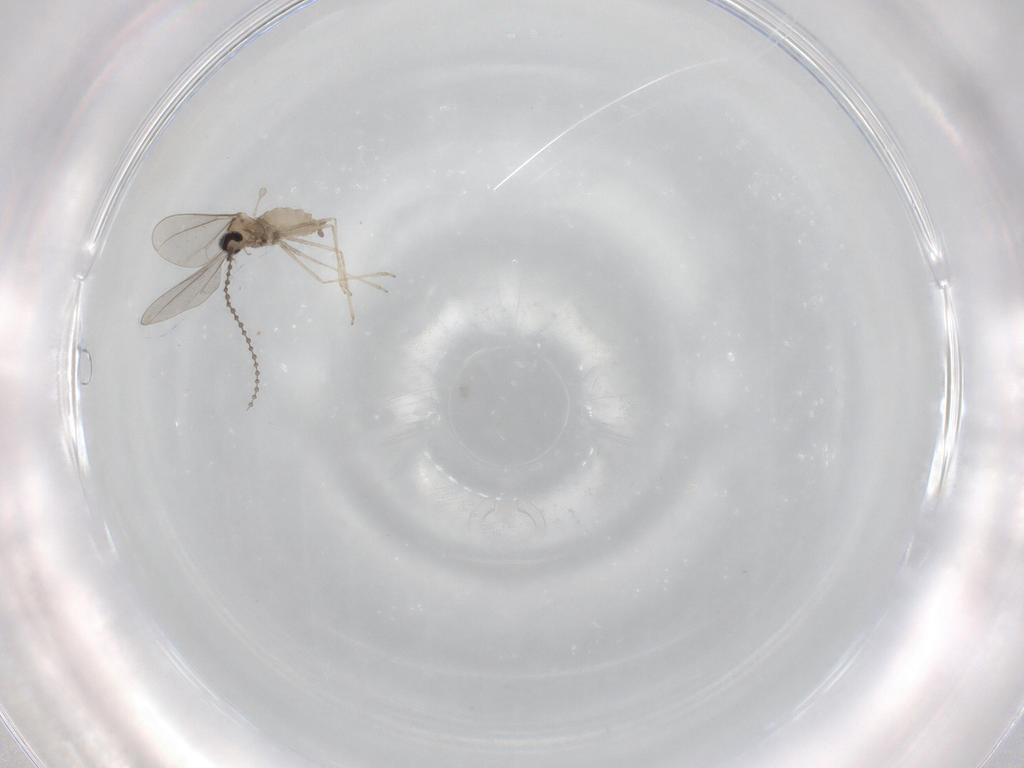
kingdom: Animalia
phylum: Arthropoda
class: Insecta
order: Diptera
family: Cecidomyiidae
